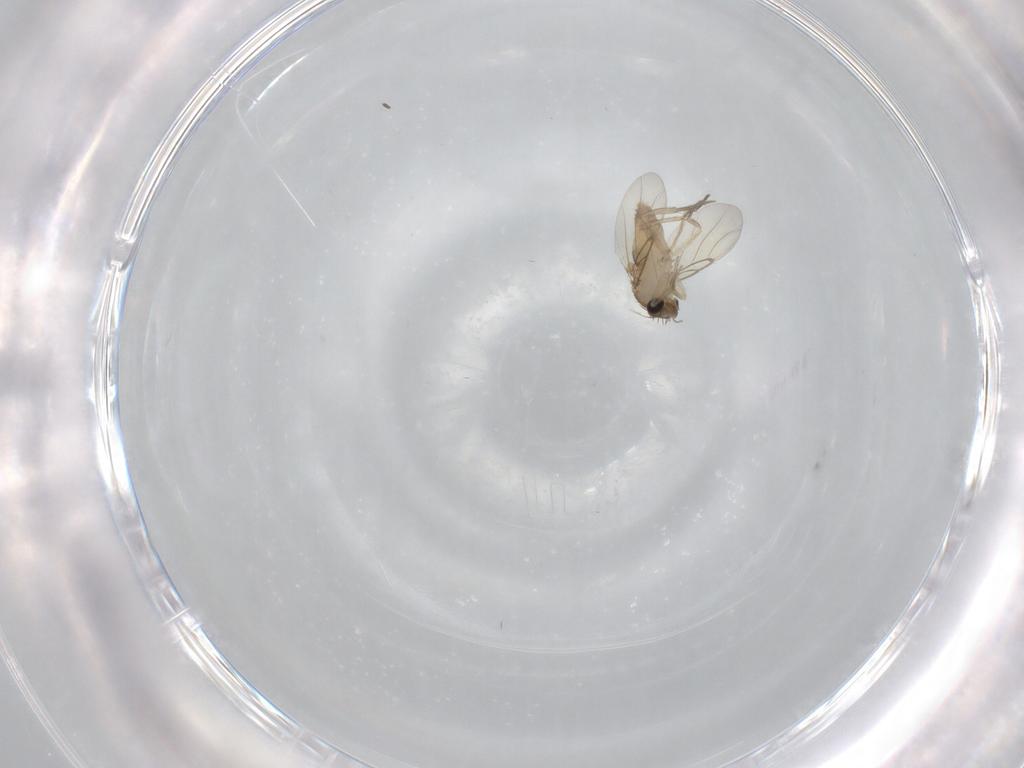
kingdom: Animalia
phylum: Arthropoda
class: Insecta
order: Diptera
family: Phoridae
